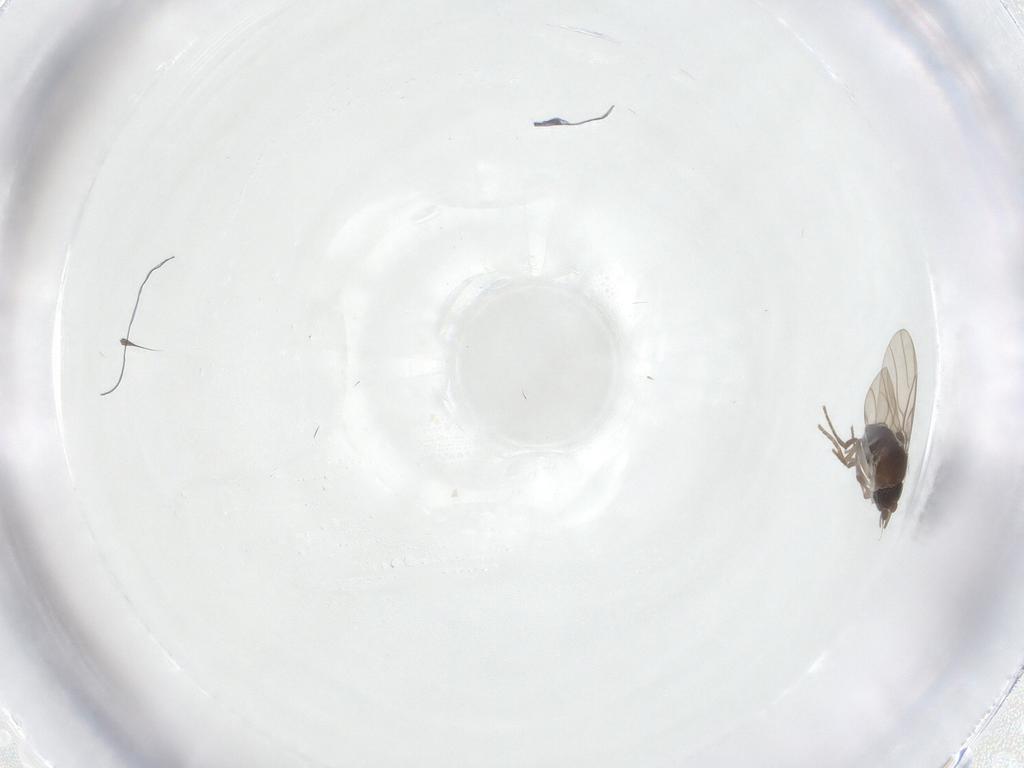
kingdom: Animalia
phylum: Arthropoda
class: Insecta
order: Diptera
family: Phoridae
